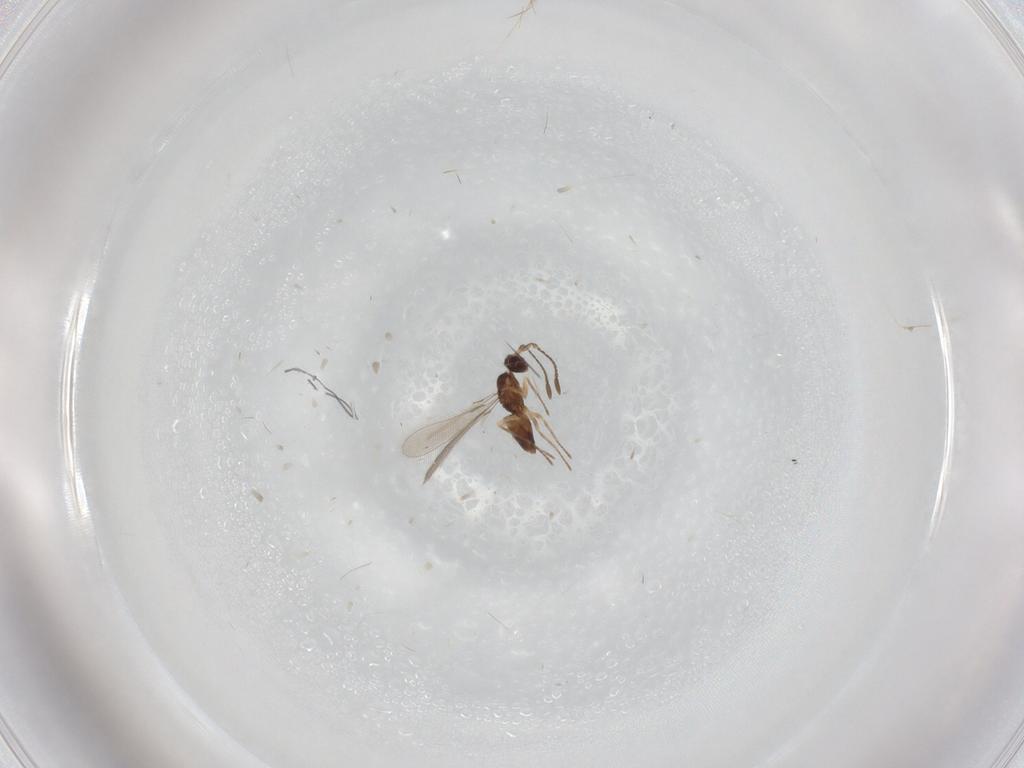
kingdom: Animalia
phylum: Arthropoda
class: Insecta
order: Hymenoptera
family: Mymaridae
